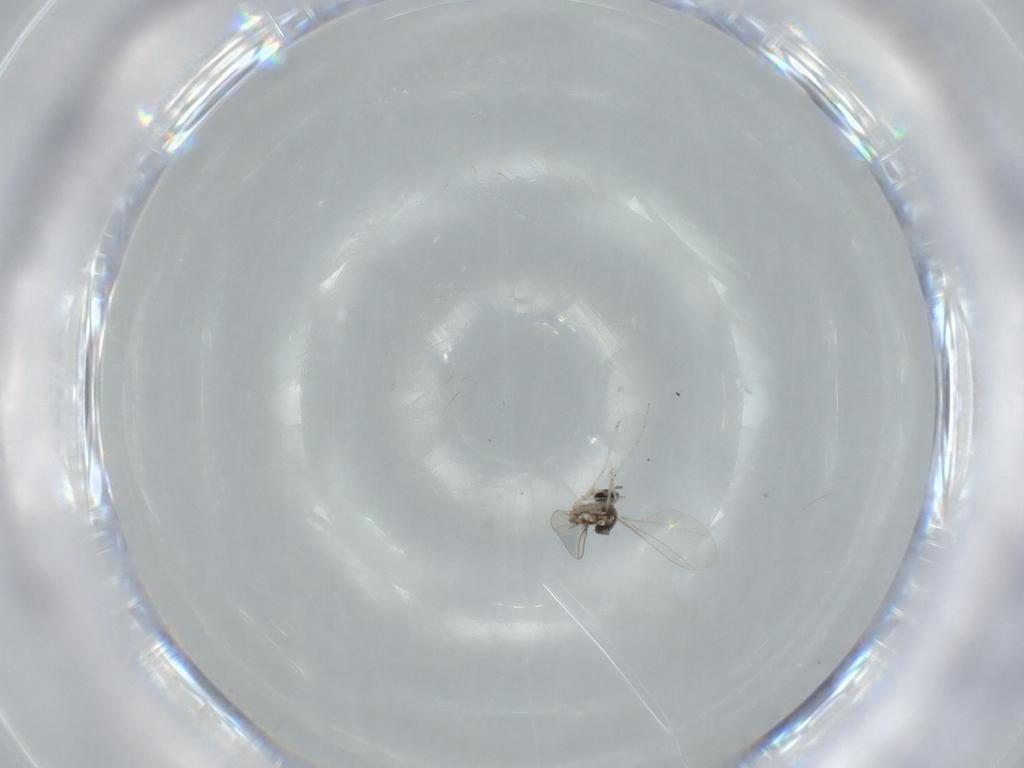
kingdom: Animalia
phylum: Arthropoda
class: Insecta
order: Diptera
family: Cecidomyiidae
